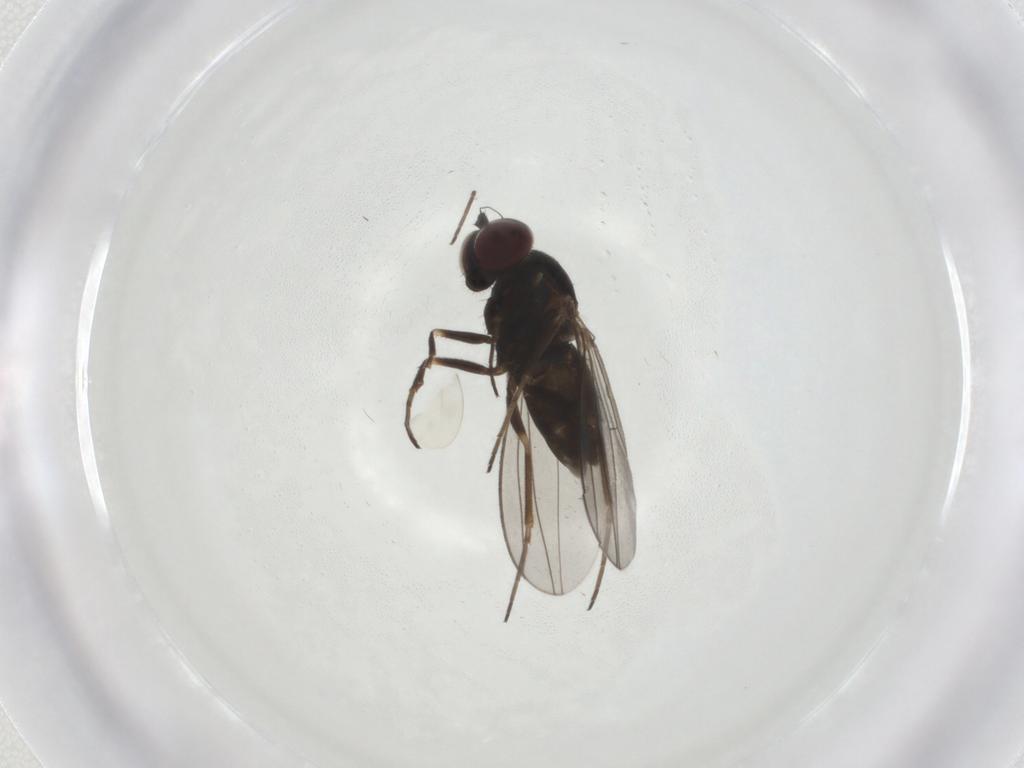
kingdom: Animalia
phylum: Arthropoda
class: Insecta
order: Diptera
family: Dolichopodidae
